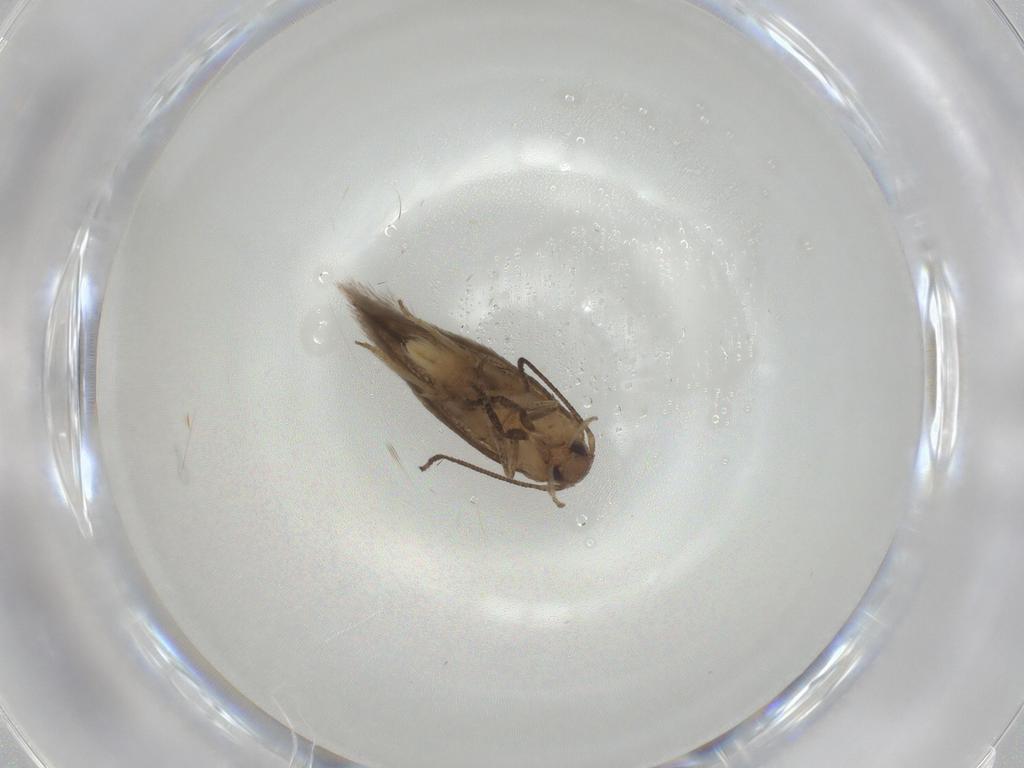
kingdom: Animalia
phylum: Arthropoda
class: Insecta
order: Lepidoptera
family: Elachistidae
